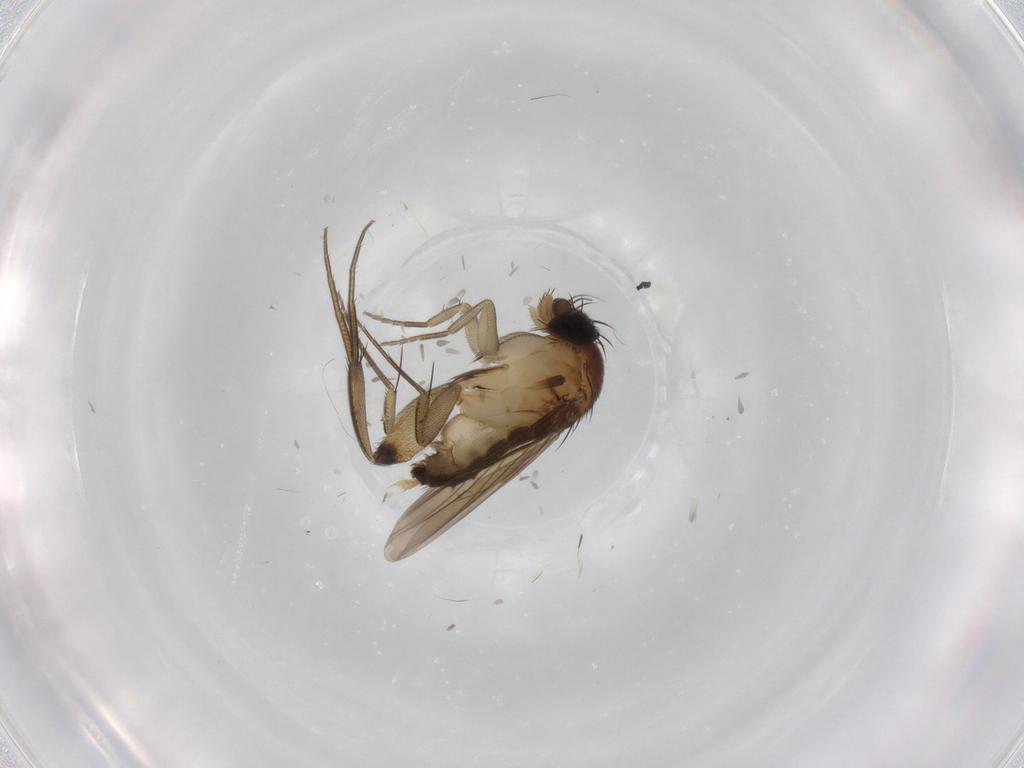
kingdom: Animalia
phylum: Arthropoda
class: Insecta
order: Diptera
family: Phoridae
